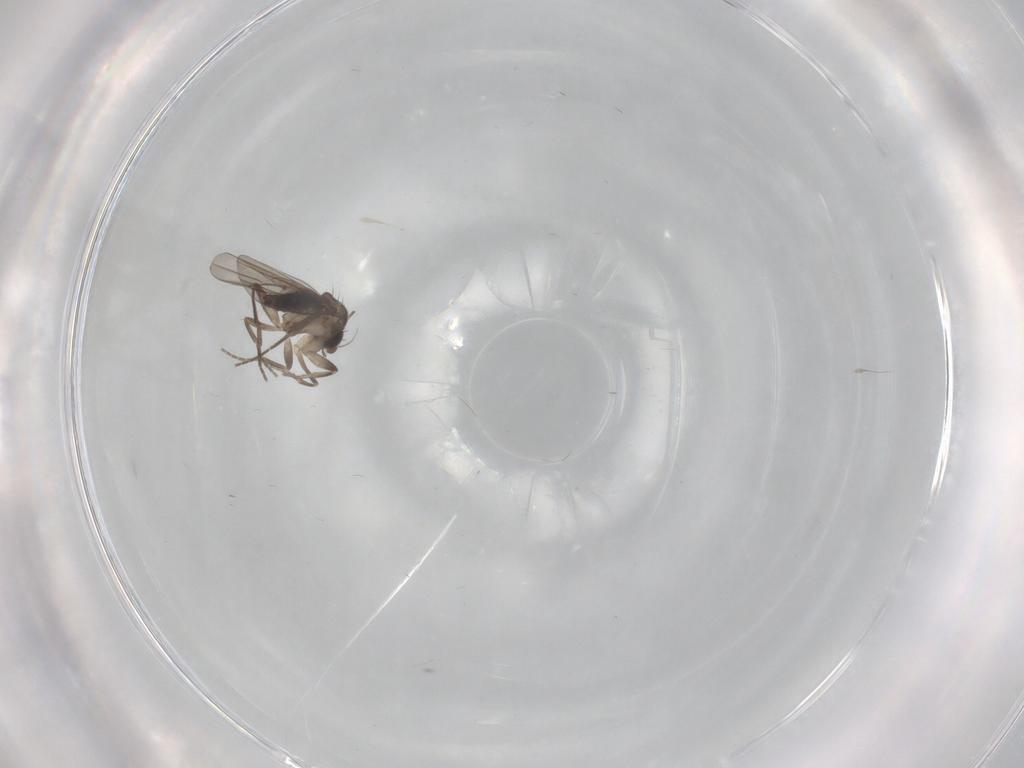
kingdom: Animalia
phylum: Arthropoda
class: Insecta
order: Diptera
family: Phoridae
